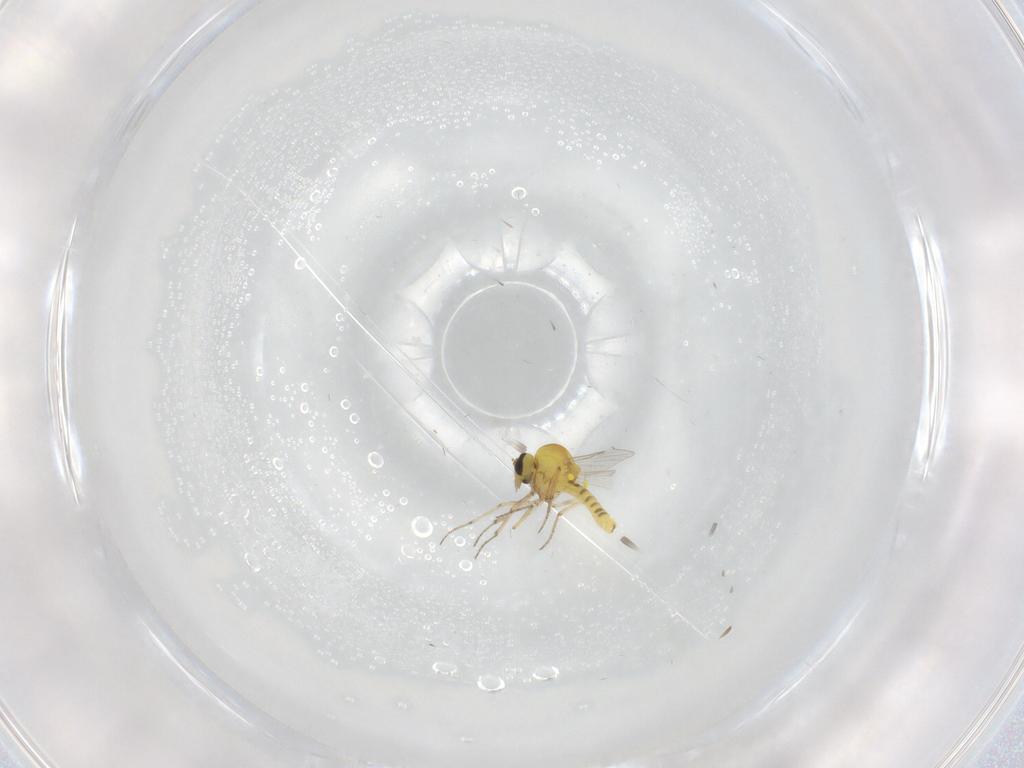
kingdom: Animalia
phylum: Arthropoda
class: Insecta
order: Diptera
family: Ceratopogonidae
